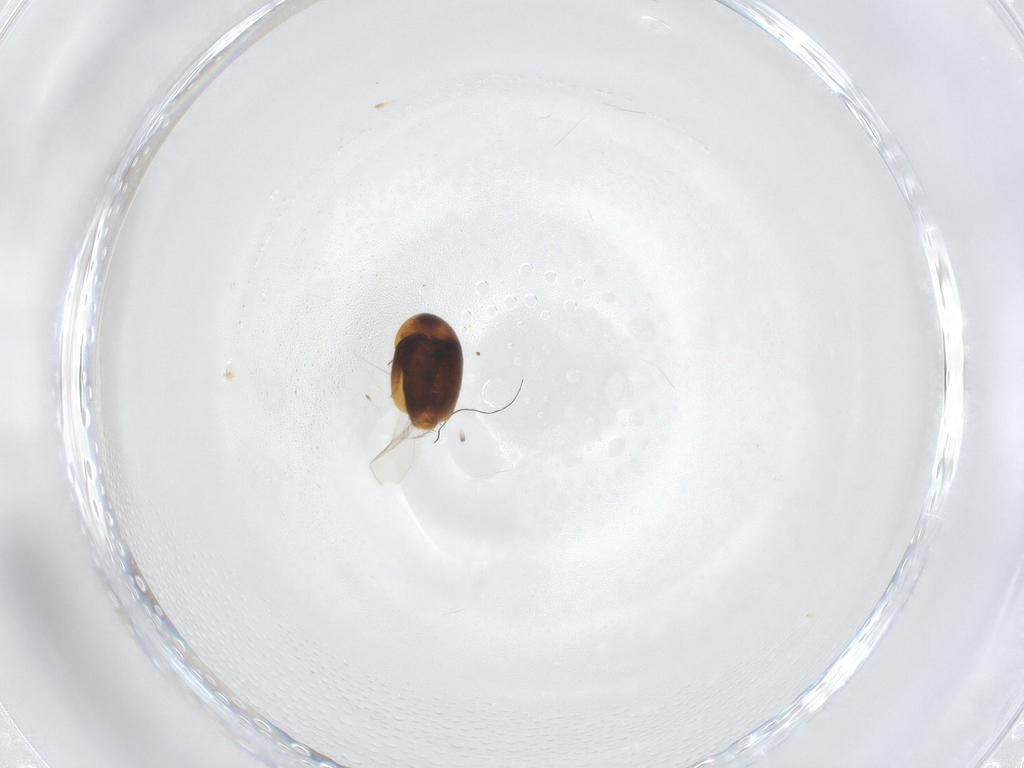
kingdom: Animalia
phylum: Arthropoda
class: Insecta
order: Coleoptera
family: Corylophidae
